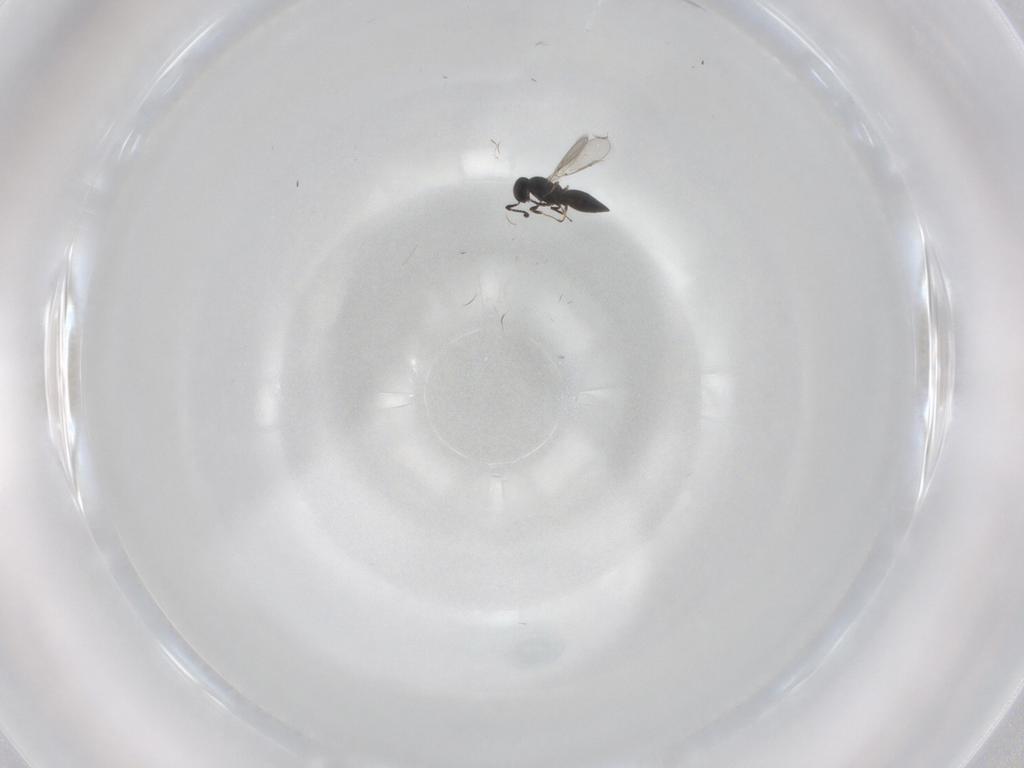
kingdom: Animalia
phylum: Arthropoda
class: Insecta
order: Hymenoptera
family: Scelionidae
